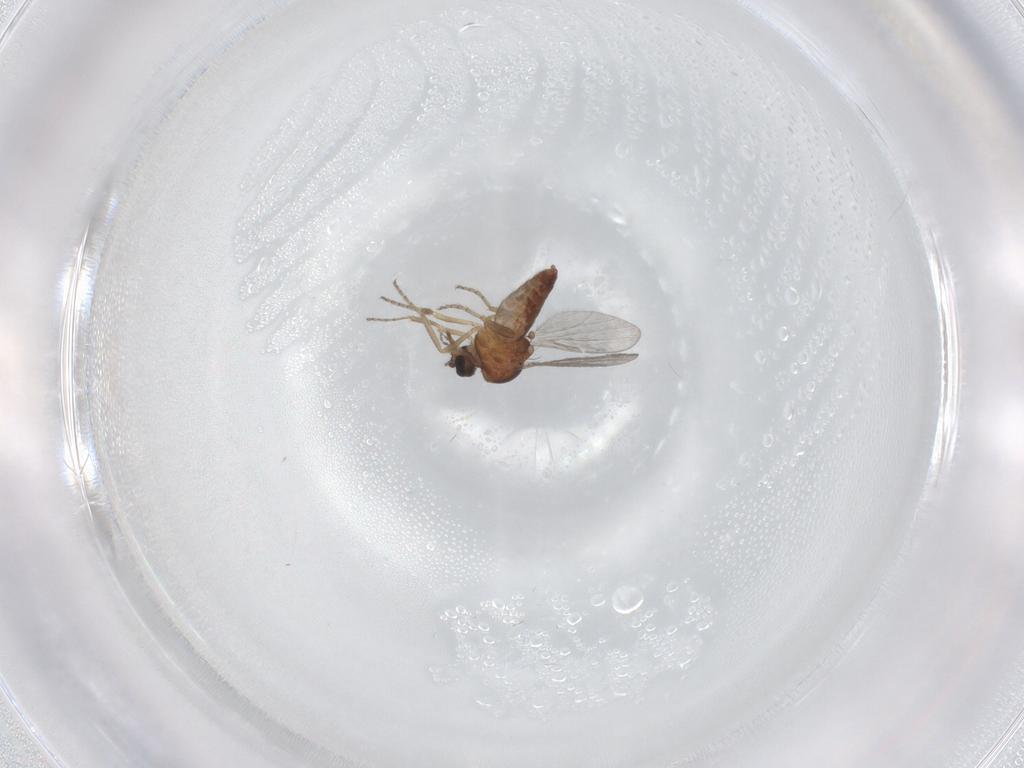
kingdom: Animalia
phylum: Arthropoda
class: Insecta
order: Diptera
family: Ceratopogonidae
